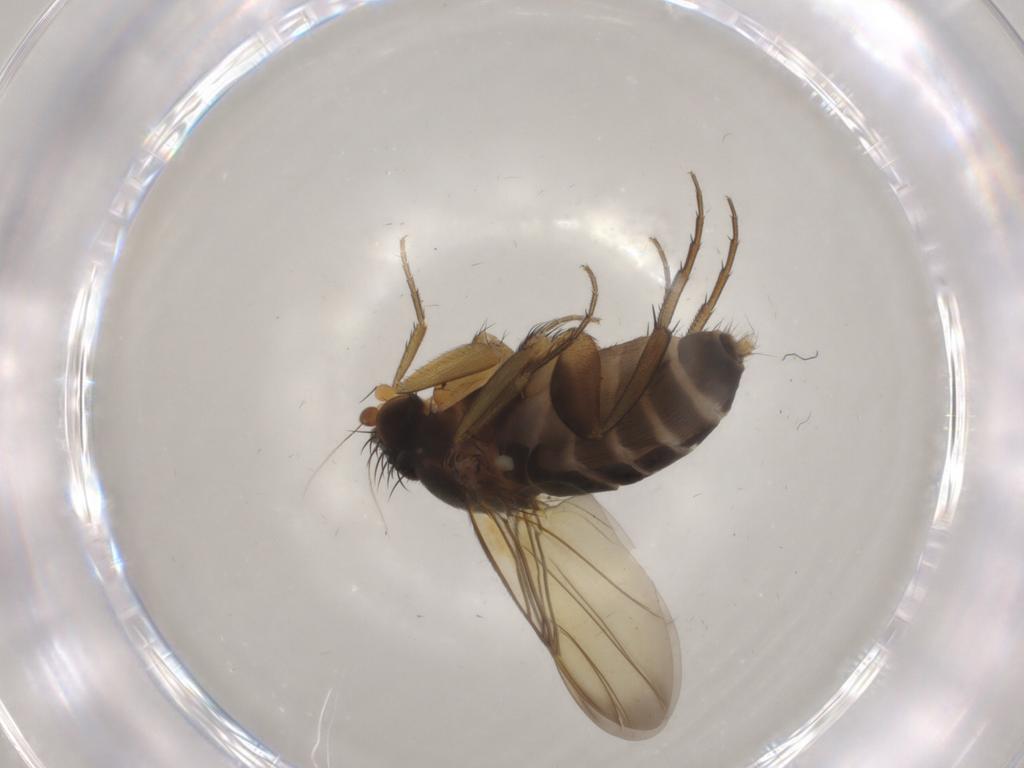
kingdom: Animalia
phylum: Arthropoda
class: Insecta
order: Diptera
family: Phoridae
